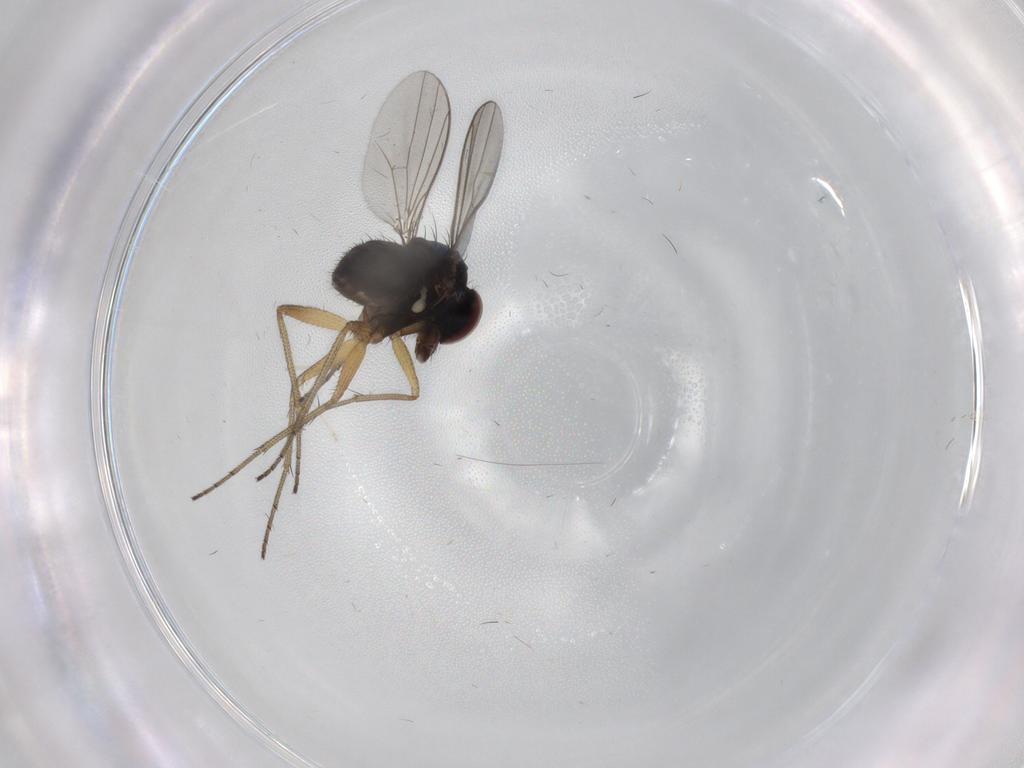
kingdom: Animalia
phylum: Arthropoda
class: Insecta
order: Diptera
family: Dolichopodidae
